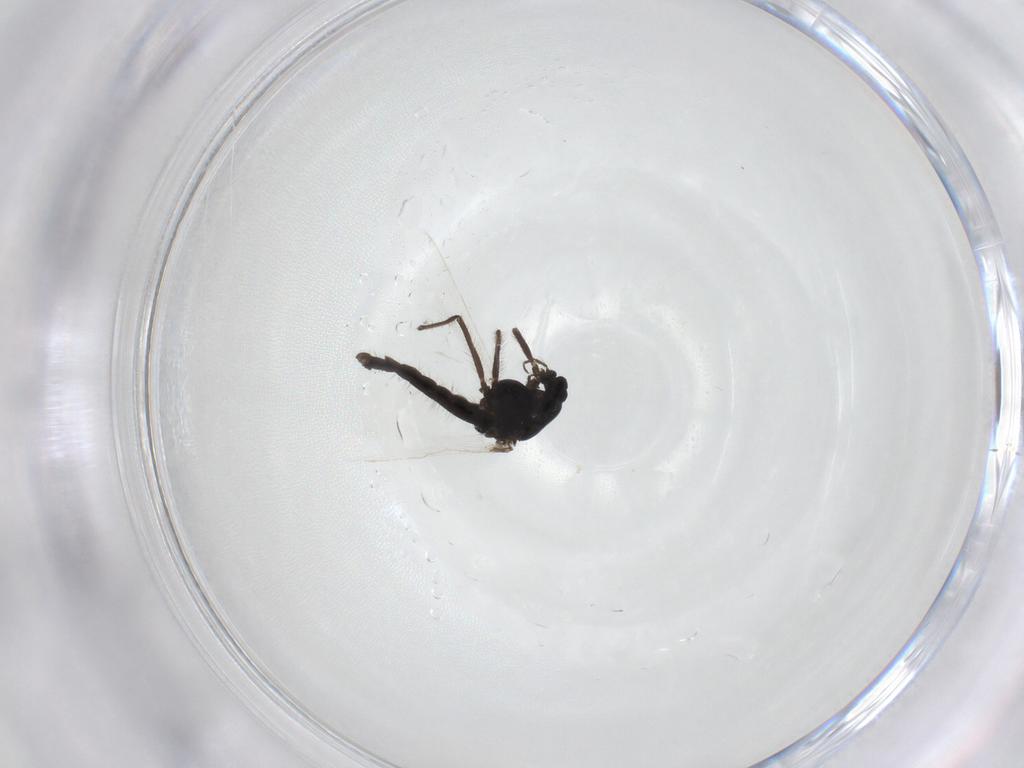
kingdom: Animalia
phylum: Arthropoda
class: Insecta
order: Diptera
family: Chironomidae
